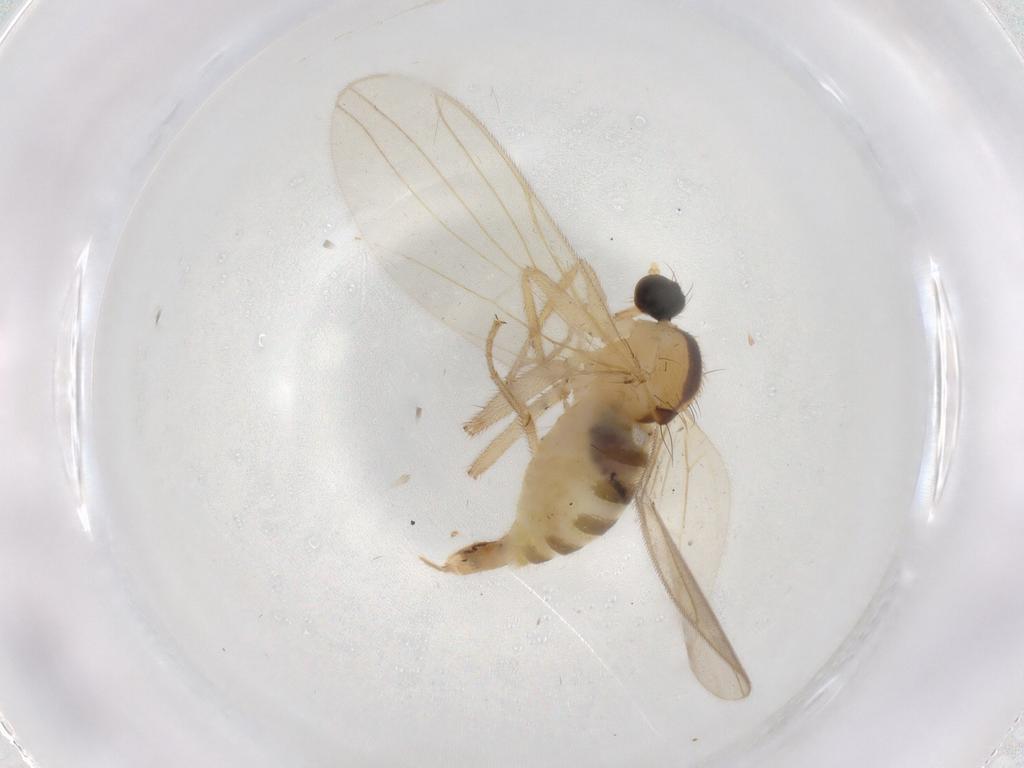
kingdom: Animalia
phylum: Arthropoda
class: Insecta
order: Diptera
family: Hybotidae
